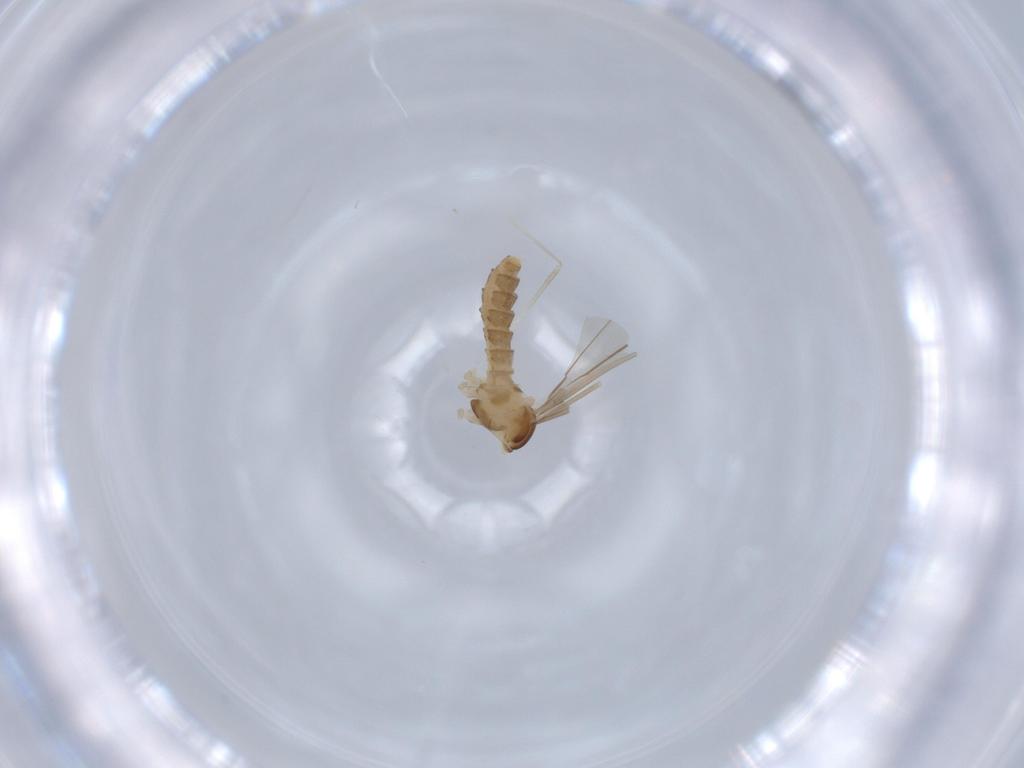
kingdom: Animalia
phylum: Arthropoda
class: Insecta
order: Diptera
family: Cecidomyiidae
